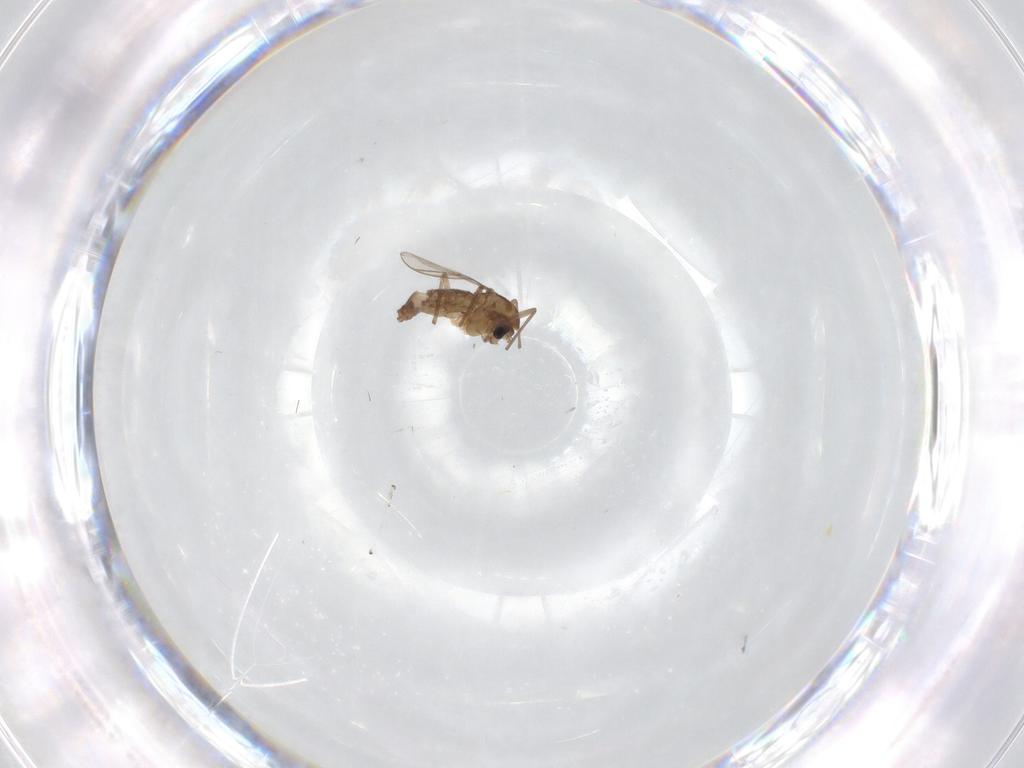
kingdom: Animalia
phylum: Arthropoda
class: Insecta
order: Diptera
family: Chironomidae
